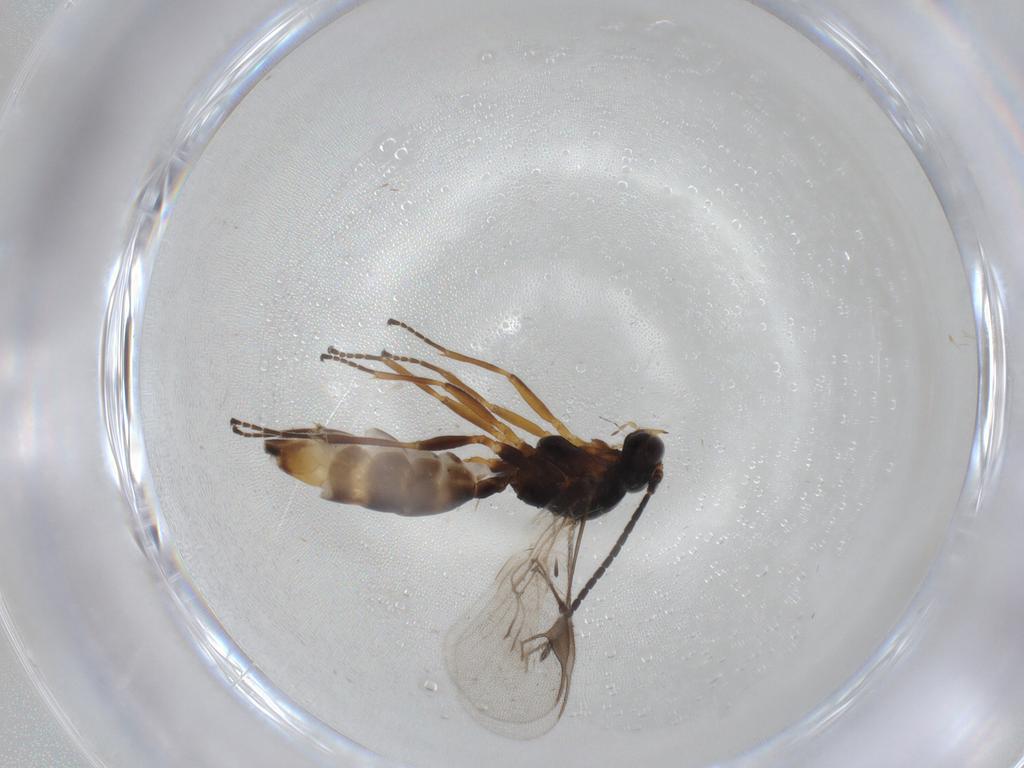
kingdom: Animalia
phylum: Arthropoda
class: Insecta
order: Hymenoptera
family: Braconidae
